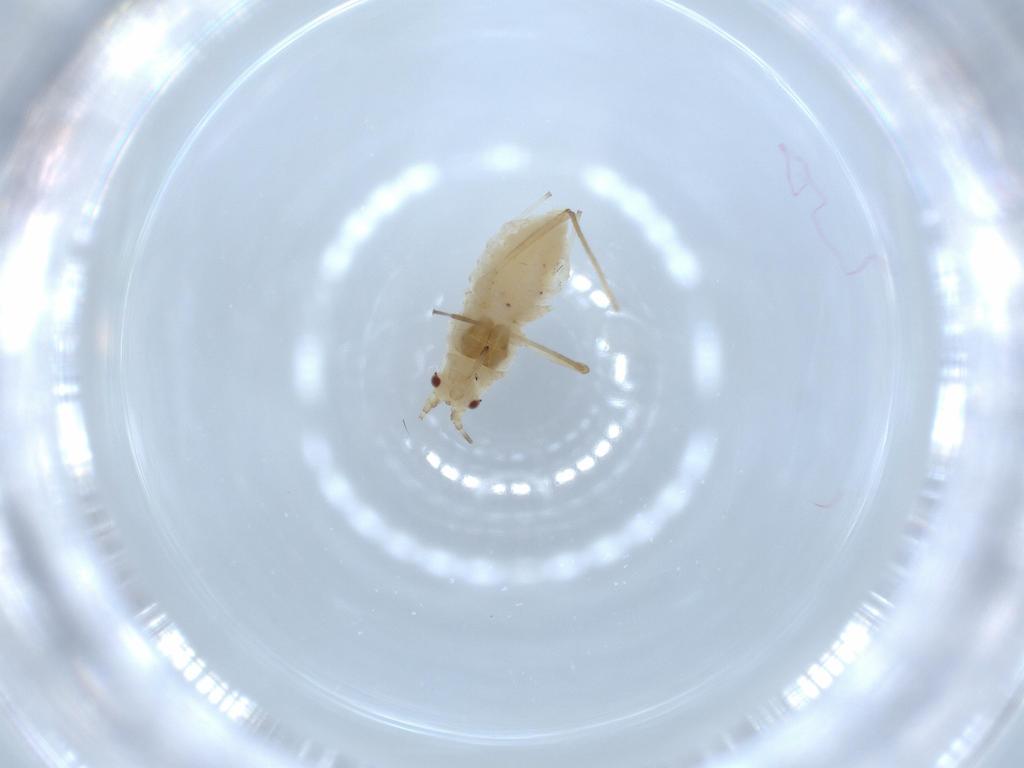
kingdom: Animalia
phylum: Arthropoda
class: Insecta
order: Hemiptera
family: Aphididae
